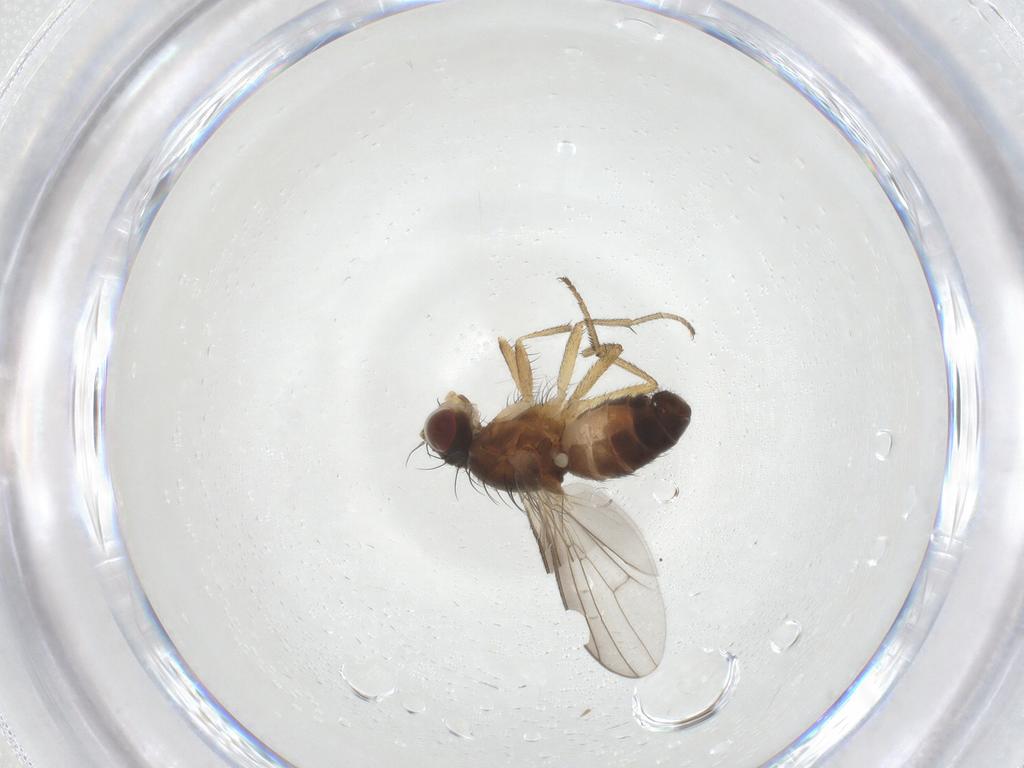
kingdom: Animalia
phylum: Arthropoda
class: Insecta
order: Diptera
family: Heleomyzidae
